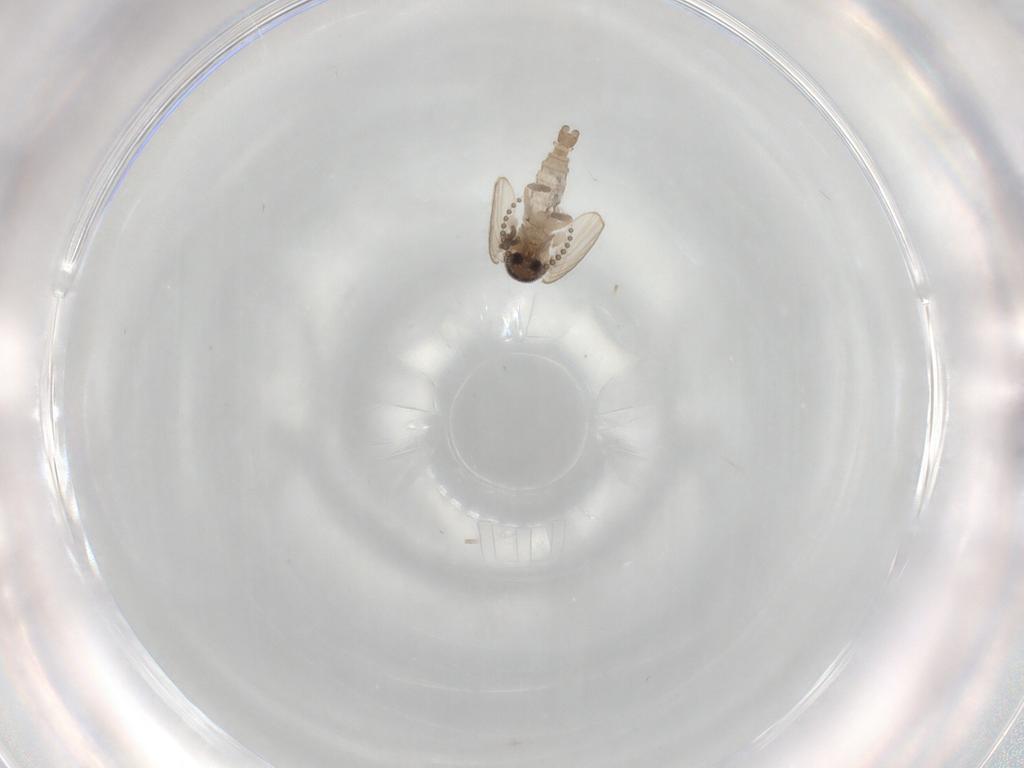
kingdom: Animalia
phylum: Arthropoda
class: Insecta
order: Diptera
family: Psychodidae
